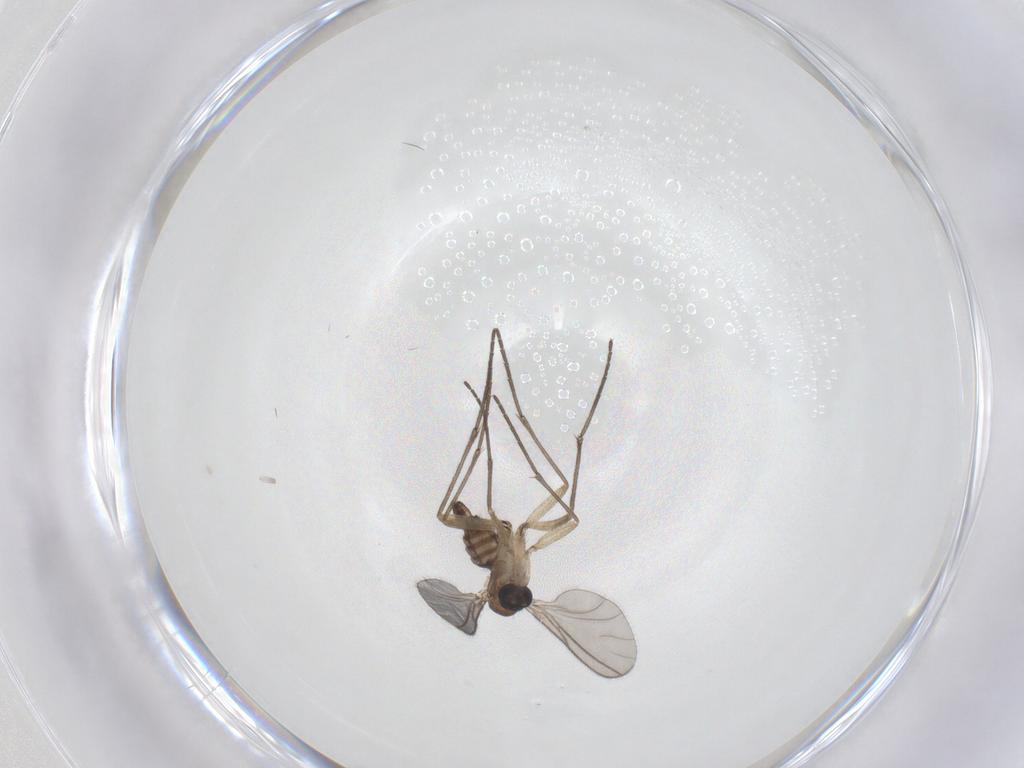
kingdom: Animalia
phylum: Arthropoda
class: Insecta
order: Diptera
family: Sciaridae
